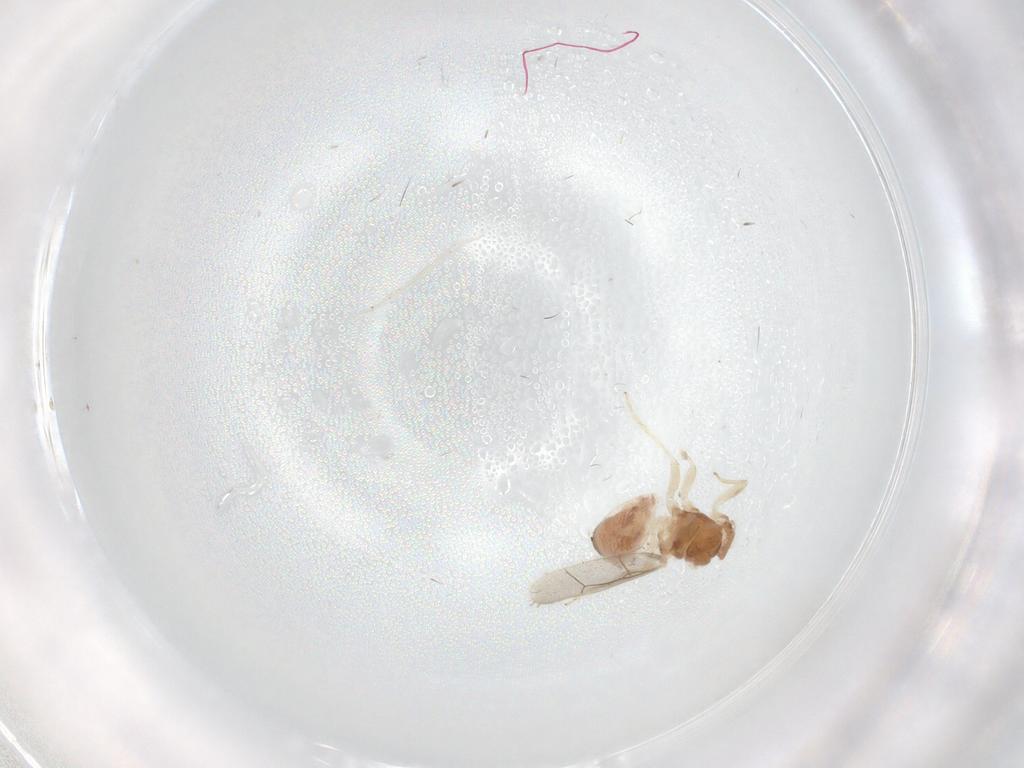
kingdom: Animalia
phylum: Arthropoda
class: Insecta
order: Psocodea
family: Archipsocidae
